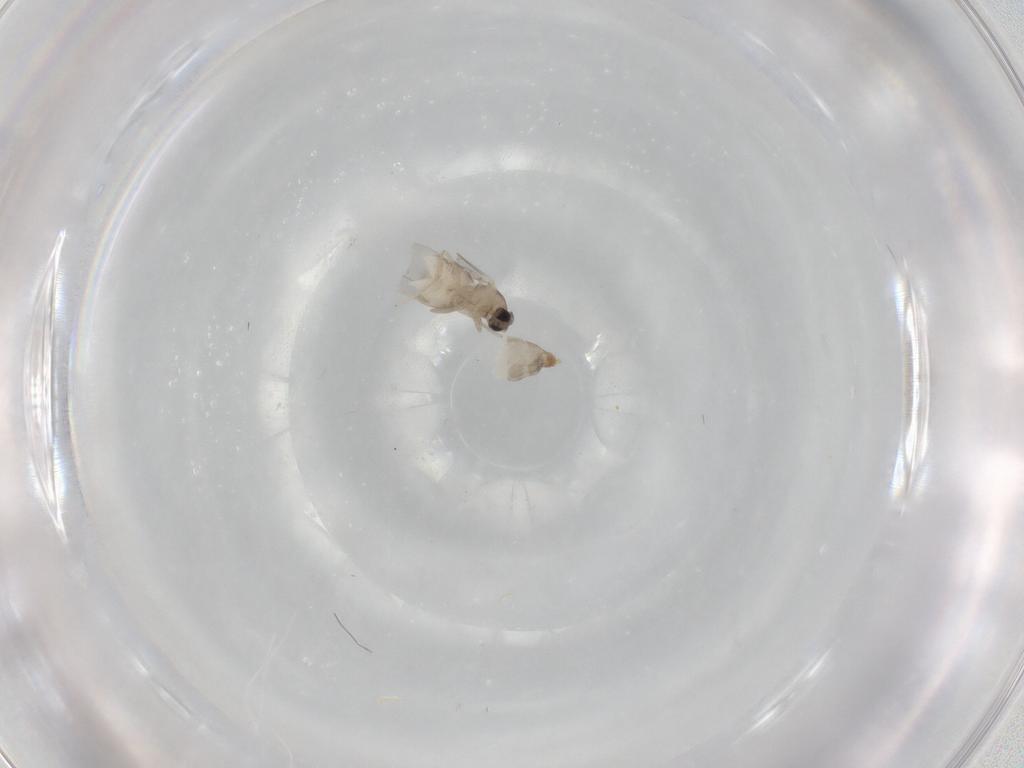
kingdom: Animalia
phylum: Arthropoda
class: Insecta
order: Diptera
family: Cecidomyiidae
